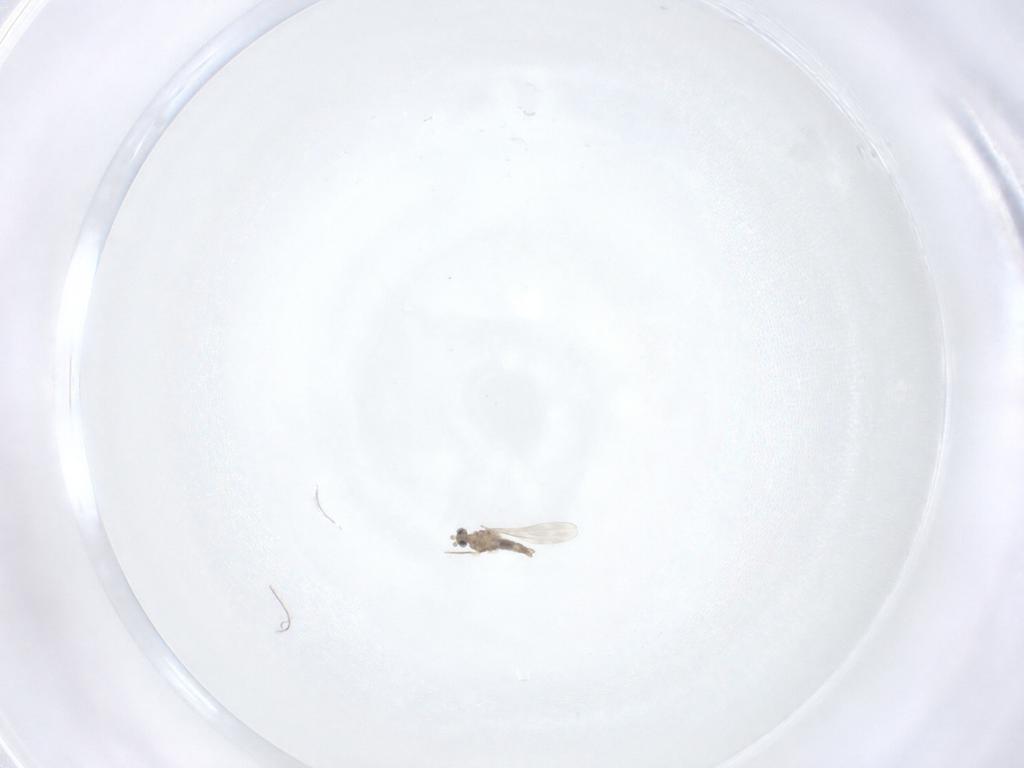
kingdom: Animalia
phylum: Arthropoda
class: Insecta
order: Diptera
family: Cecidomyiidae
